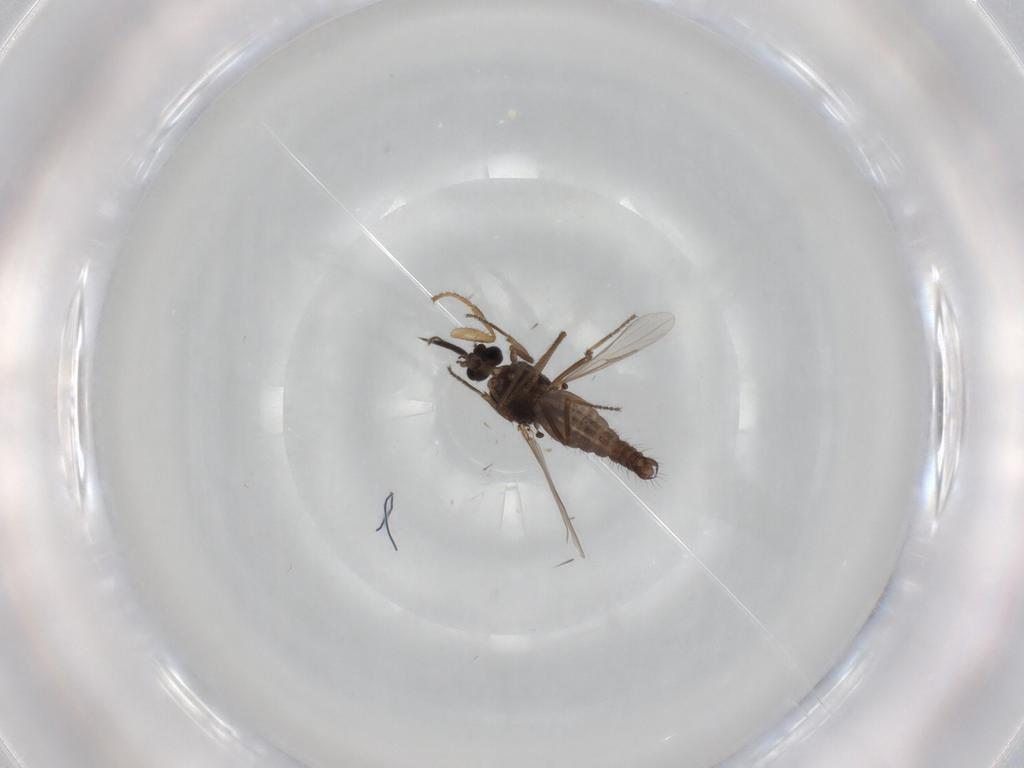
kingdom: Animalia
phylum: Arthropoda
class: Insecta
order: Diptera
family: Ceratopogonidae
